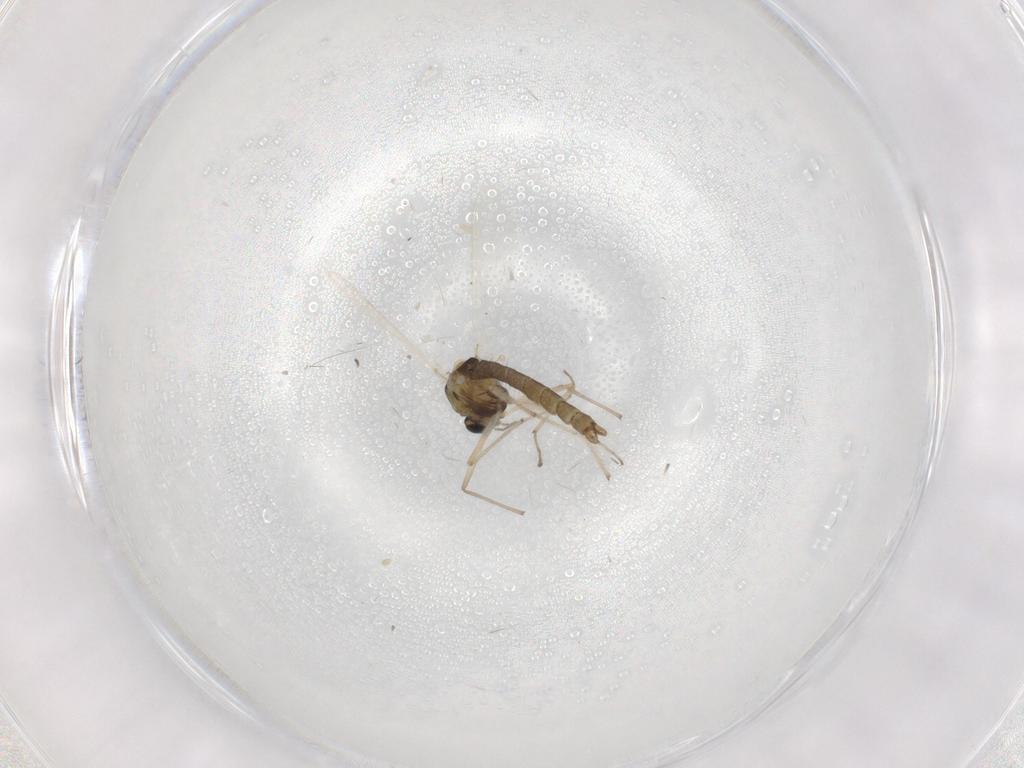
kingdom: Animalia
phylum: Arthropoda
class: Insecta
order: Diptera
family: Chironomidae
